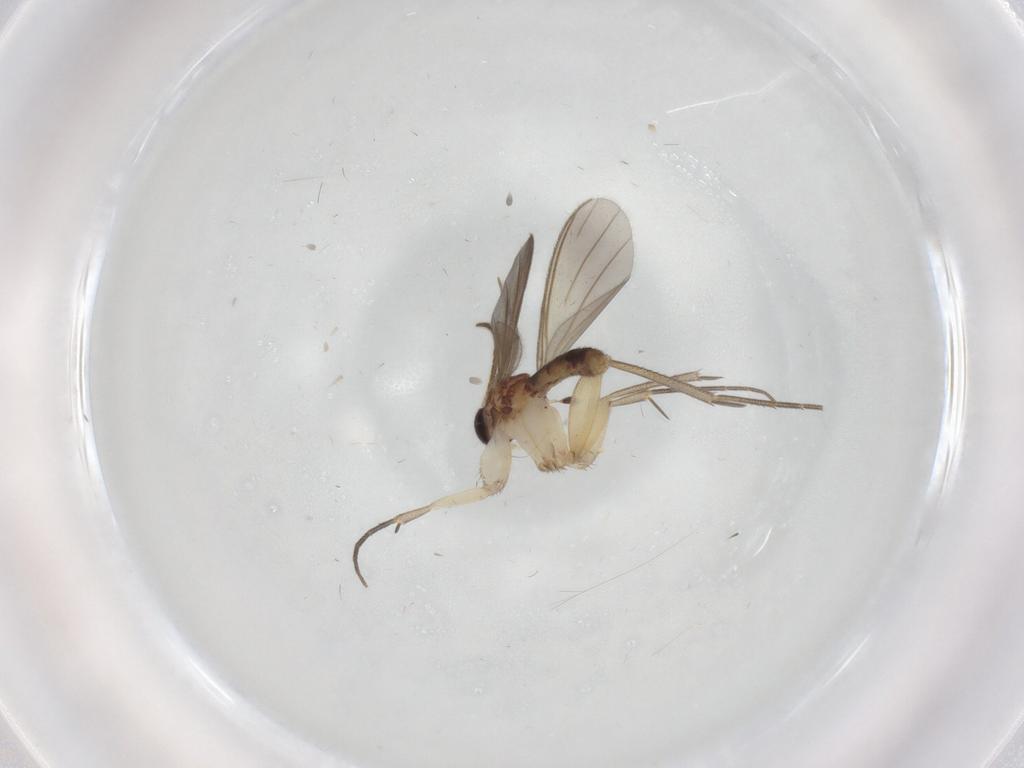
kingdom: Animalia
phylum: Arthropoda
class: Insecta
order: Diptera
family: Mycetophilidae
